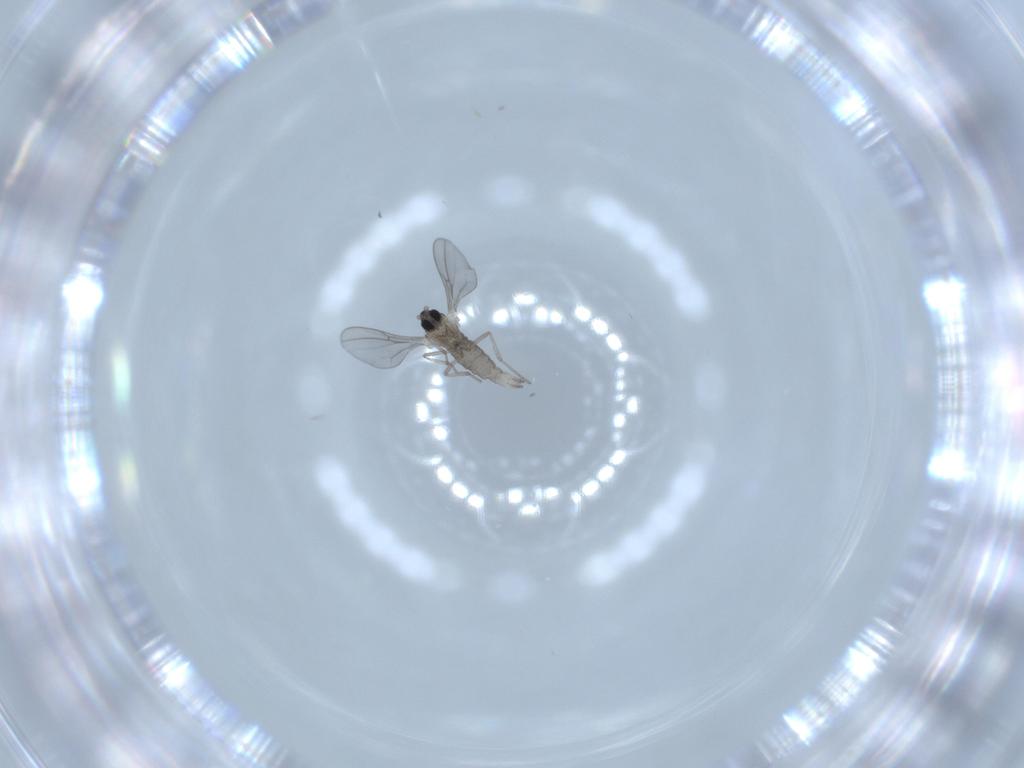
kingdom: Animalia
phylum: Arthropoda
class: Insecta
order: Diptera
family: Cecidomyiidae
